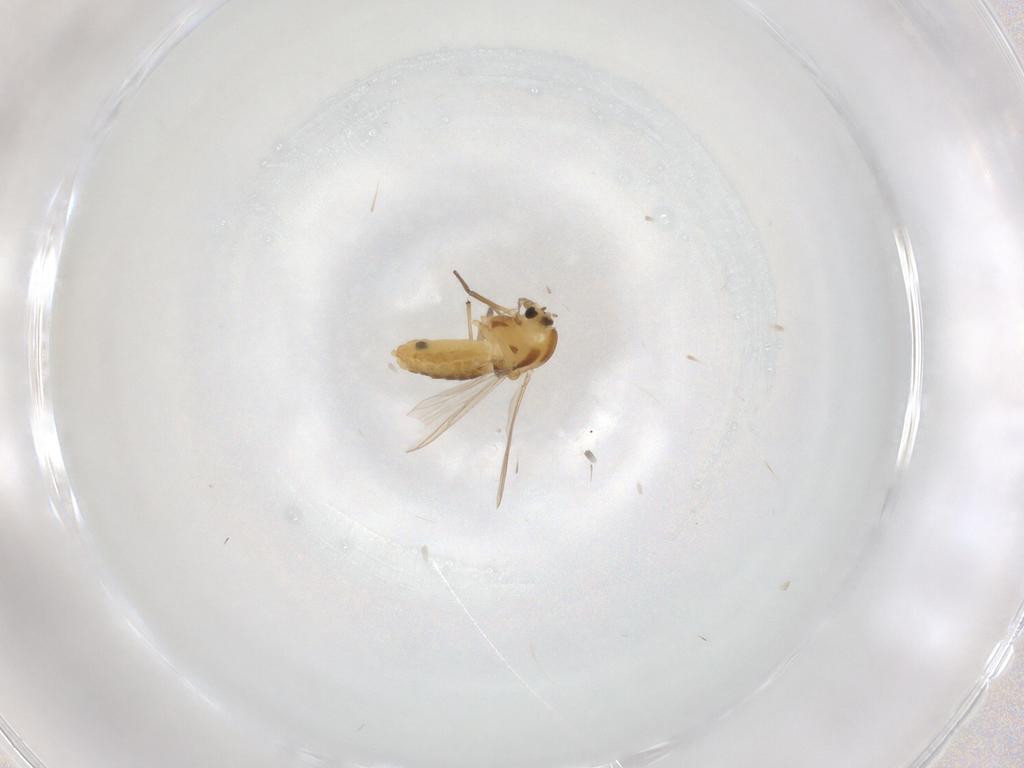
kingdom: Animalia
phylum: Arthropoda
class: Insecta
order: Diptera
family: Chironomidae
